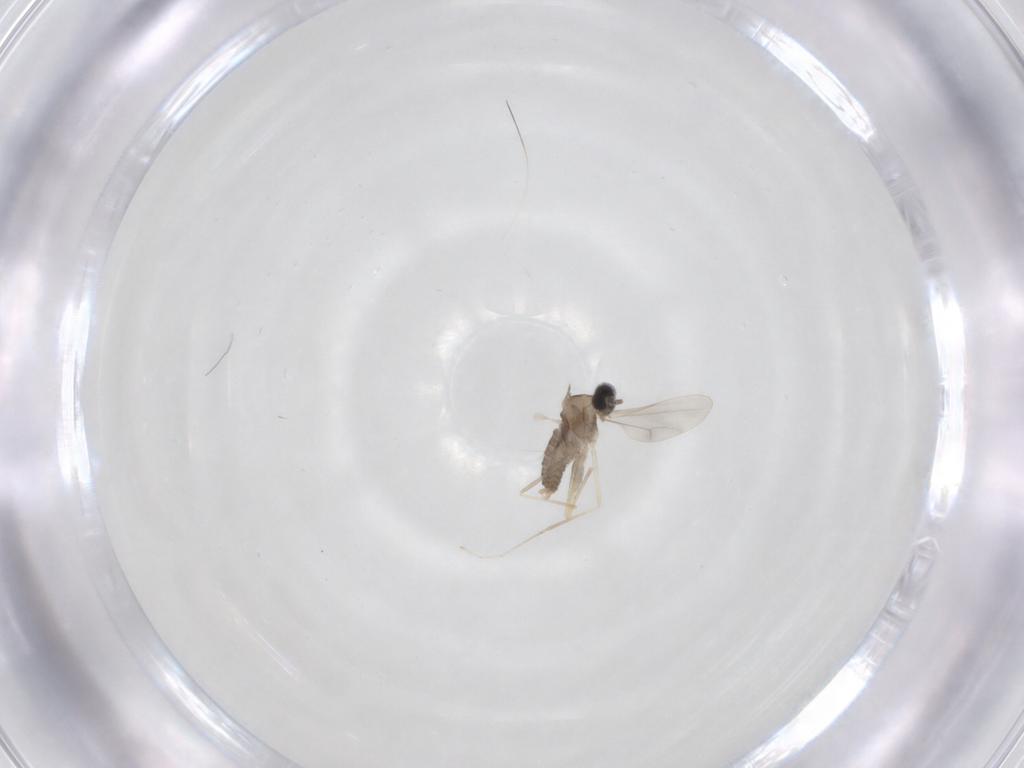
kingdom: Animalia
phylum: Arthropoda
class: Insecta
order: Diptera
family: Cecidomyiidae
